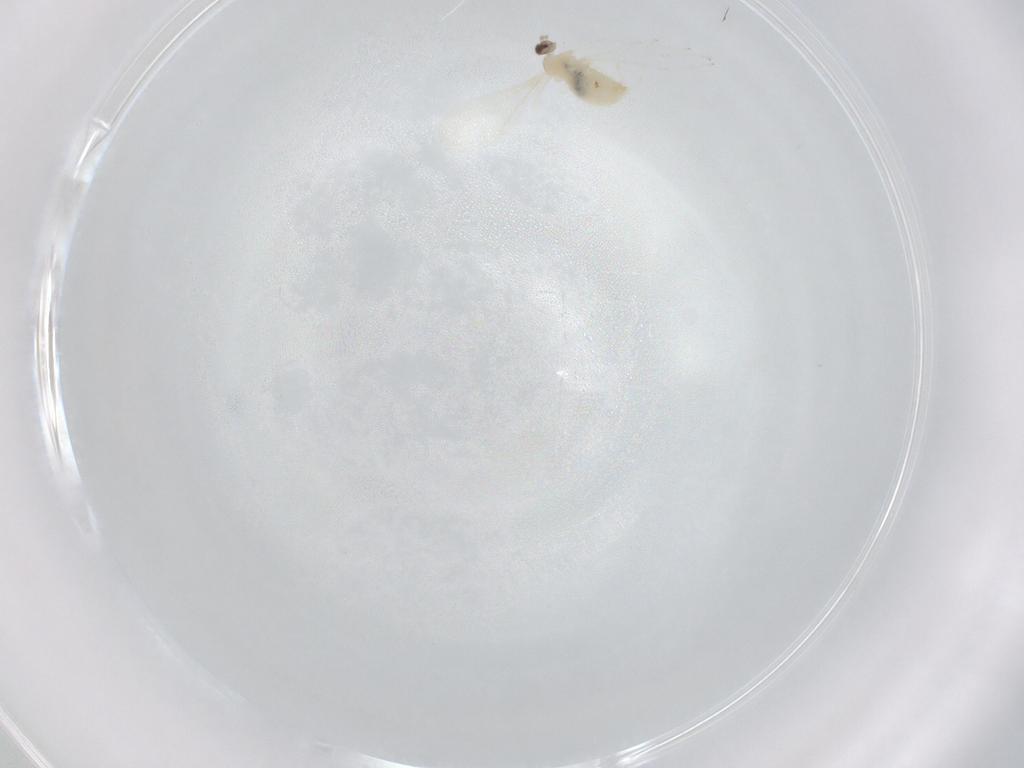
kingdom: Animalia
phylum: Arthropoda
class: Insecta
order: Diptera
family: Cecidomyiidae
